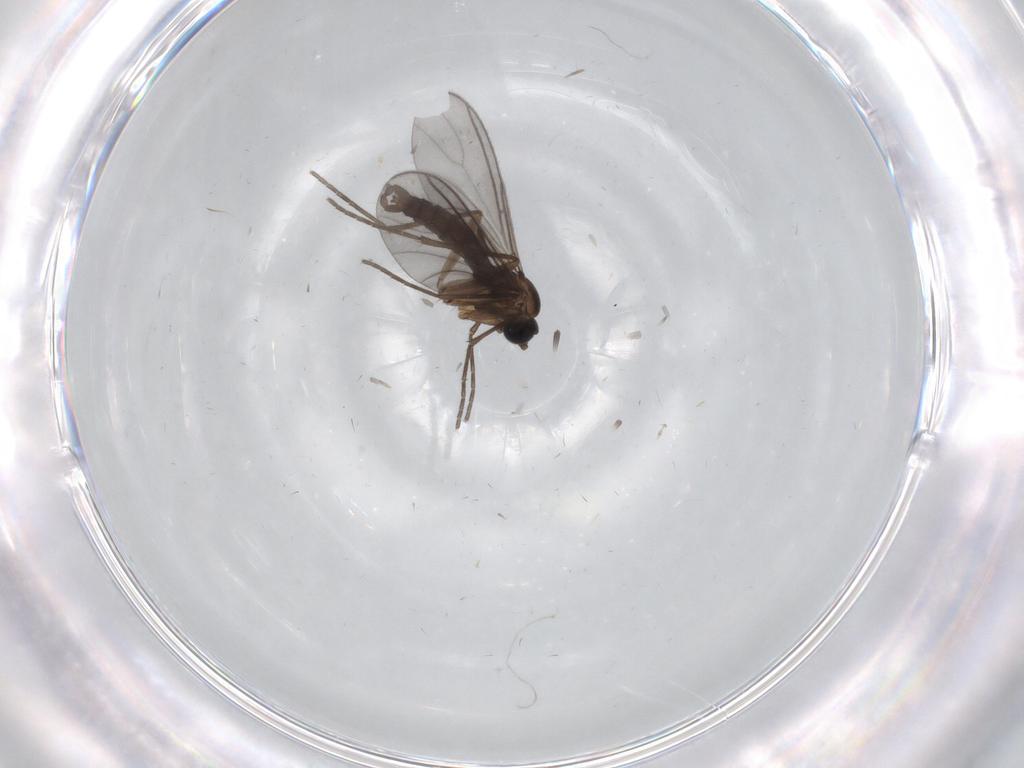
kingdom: Animalia
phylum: Arthropoda
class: Insecta
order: Diptera
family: Sciaridae
